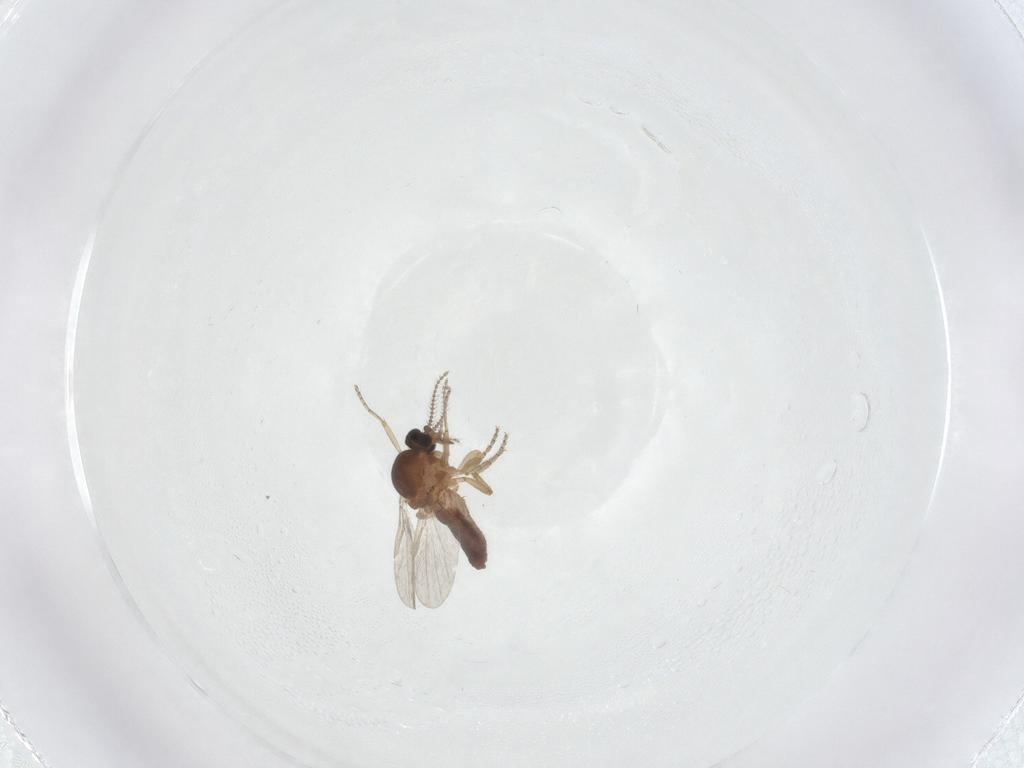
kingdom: Animalia
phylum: Arthropoda
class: Insecta
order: Diptera
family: Ceratopogonidae
